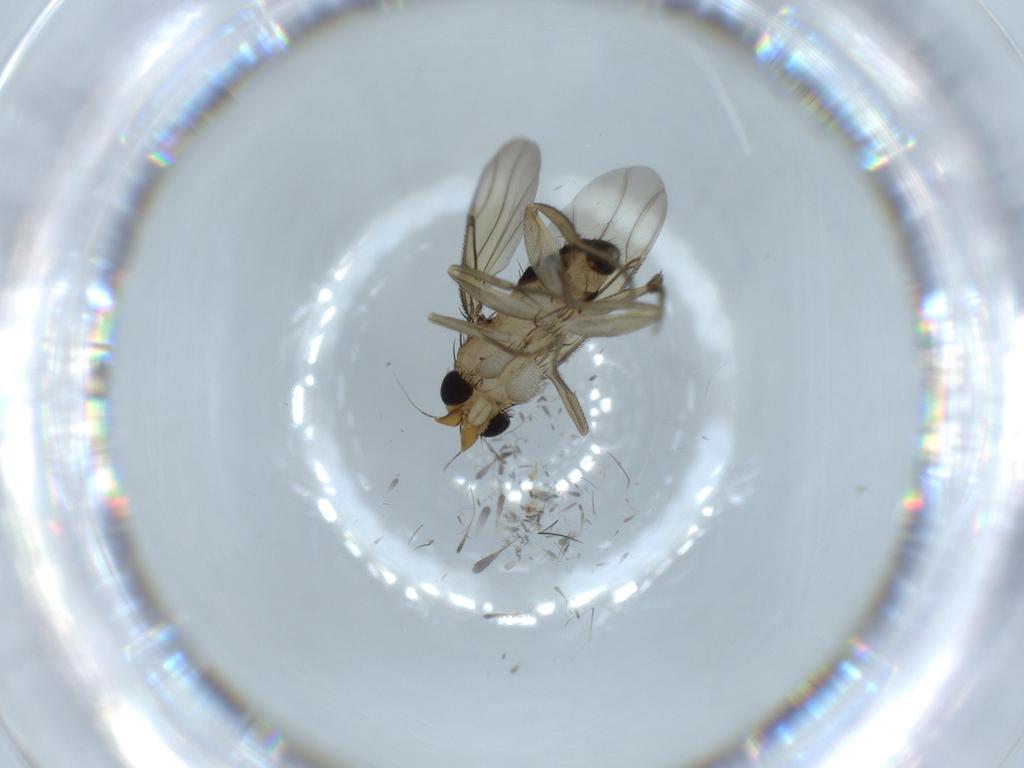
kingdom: Animalia
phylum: Arthropoda
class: Insecta
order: Diptera
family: Phoridae
